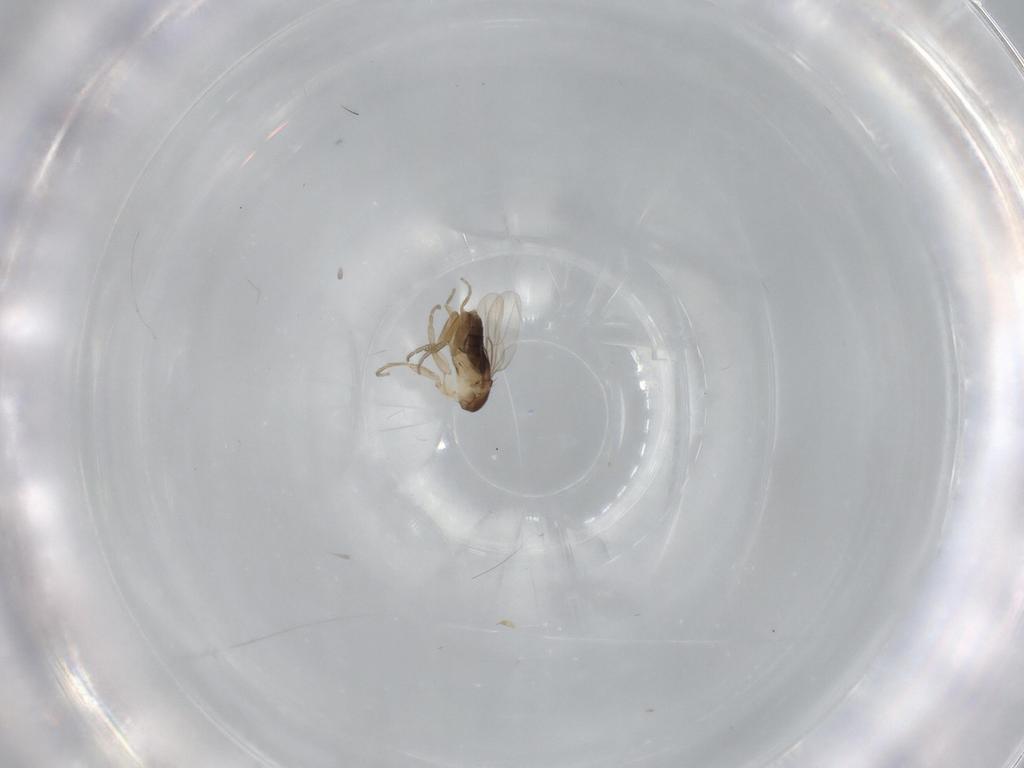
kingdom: Animalia
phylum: Arthropoda
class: Insecta
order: Diptera
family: Phoridae
